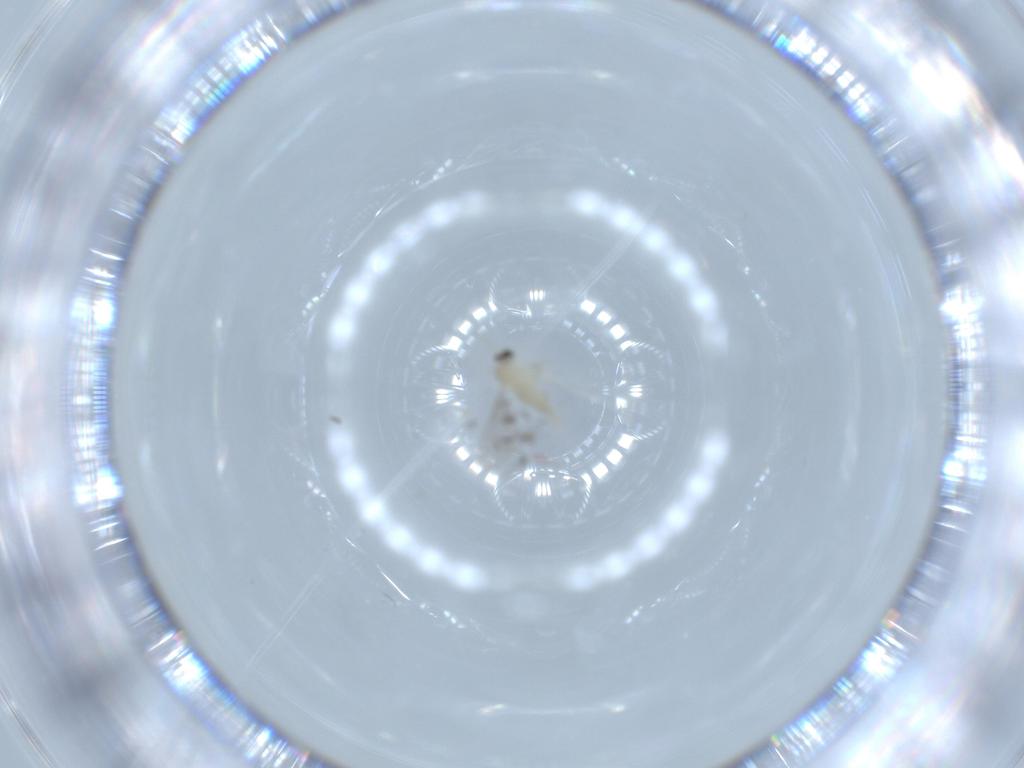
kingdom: Animalia
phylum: Arthropoda
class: Insecta
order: Diptera
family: Cecidomyiidae
